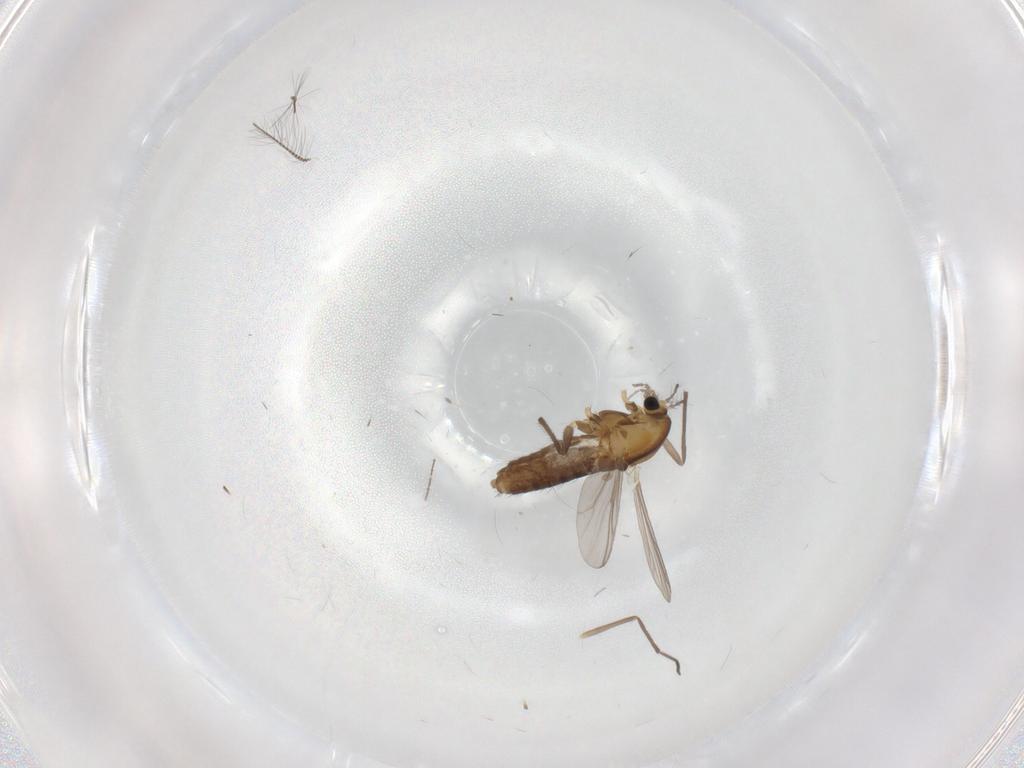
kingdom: Animalia
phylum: Arthropoda
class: Insecta
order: Diptera
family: Chironomidae
